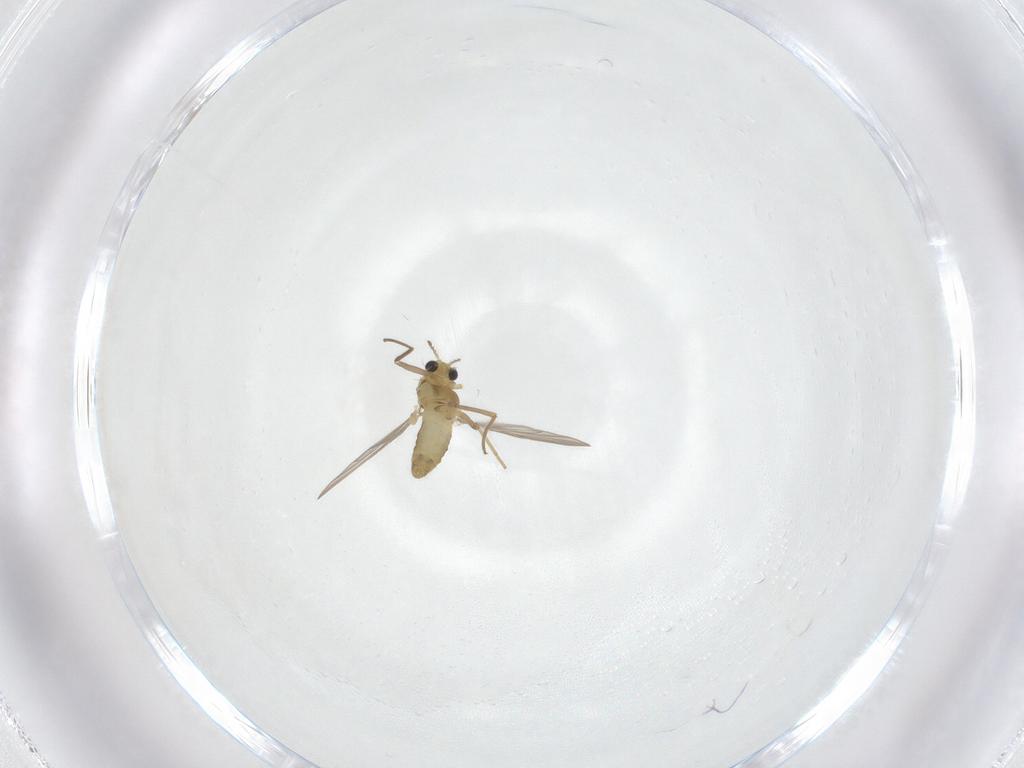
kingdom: Animalia
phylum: Arthropoda
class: Insecta
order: Diptera
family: Chironomidae
